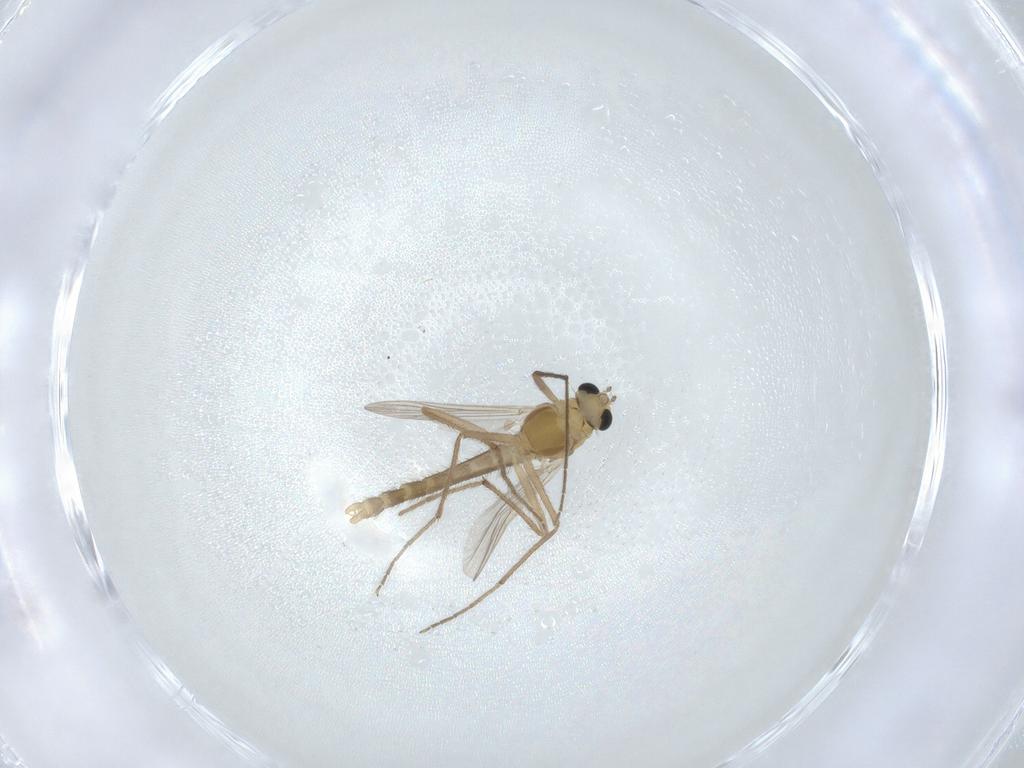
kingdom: Animalia
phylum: Arthropoda
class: Insecta
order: Diptera
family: Chironomidae
